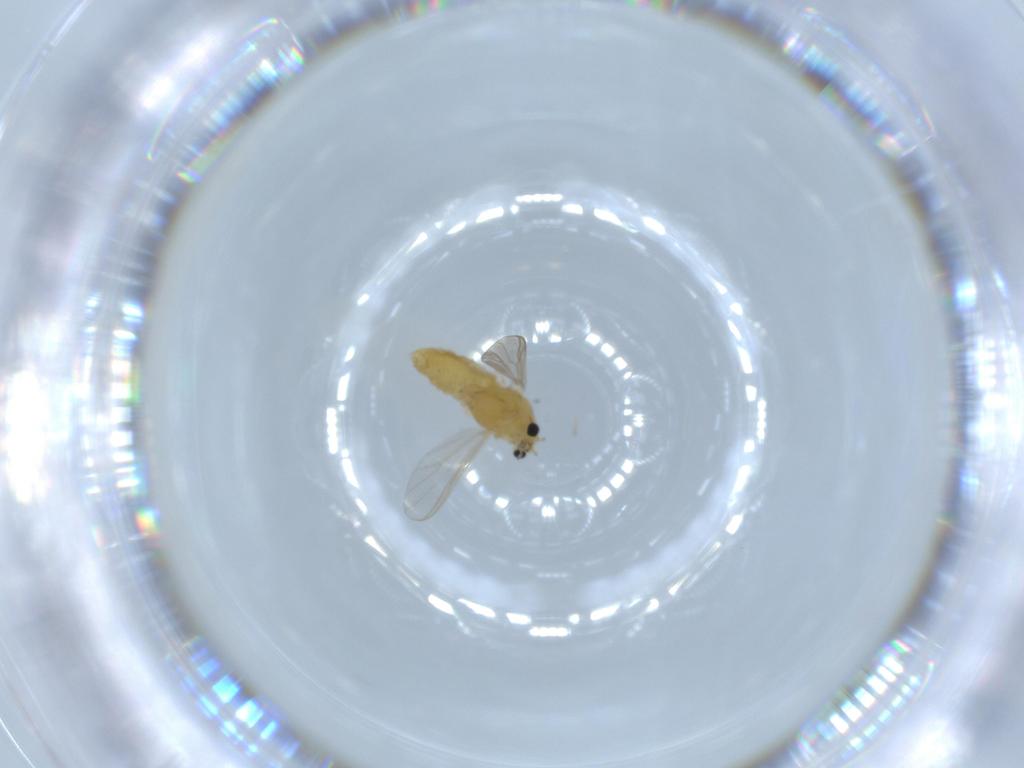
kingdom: Animalia
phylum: Arthropoda
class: Insecta
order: Diptera
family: Chironomidae
